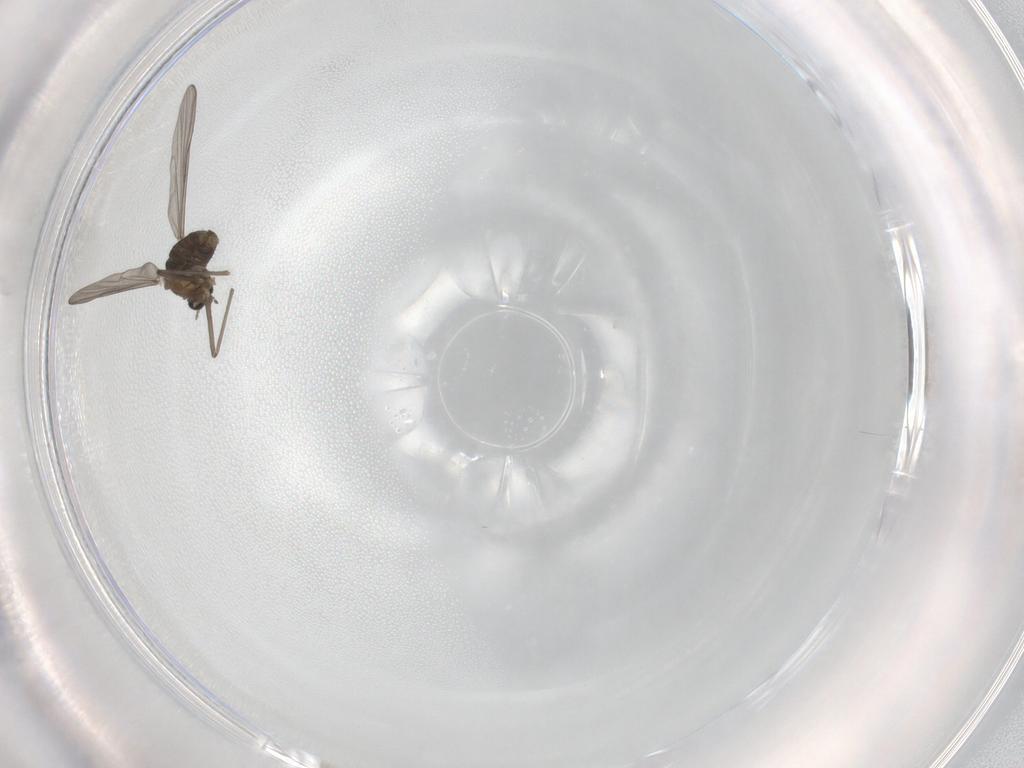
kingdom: Animalia
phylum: Arthropoda
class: Insecta
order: Diptera
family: Chironomidae
